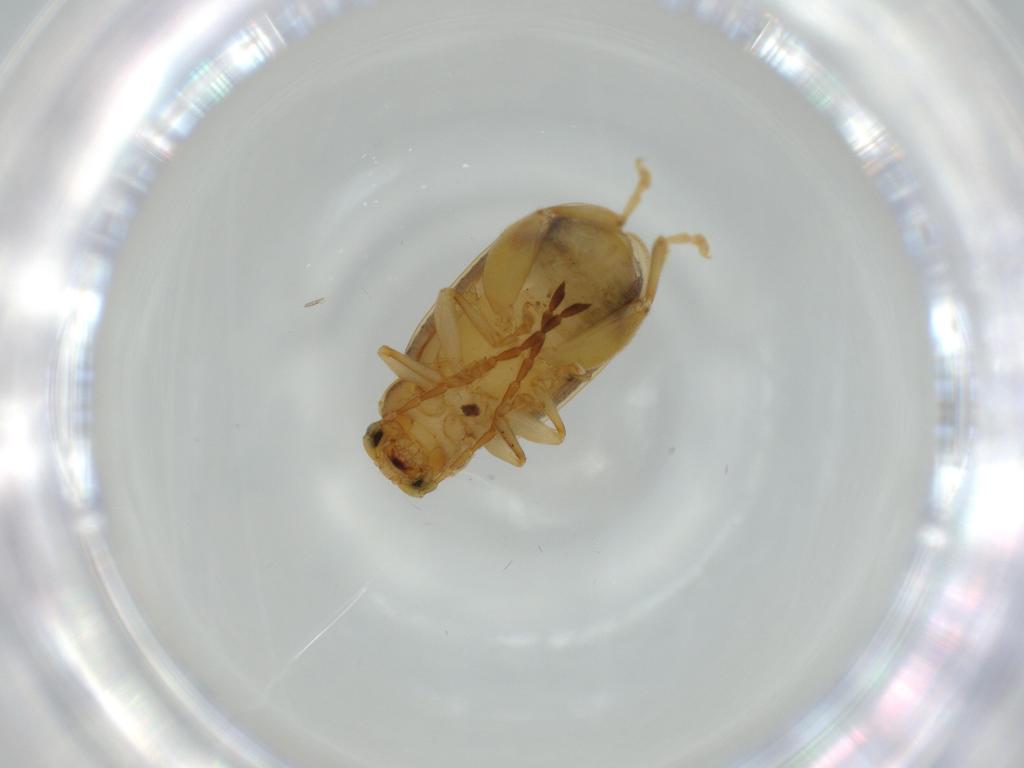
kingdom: Animalia
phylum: Arthropoda
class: Insecta
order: Coleoptera
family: Chrysomelidae
